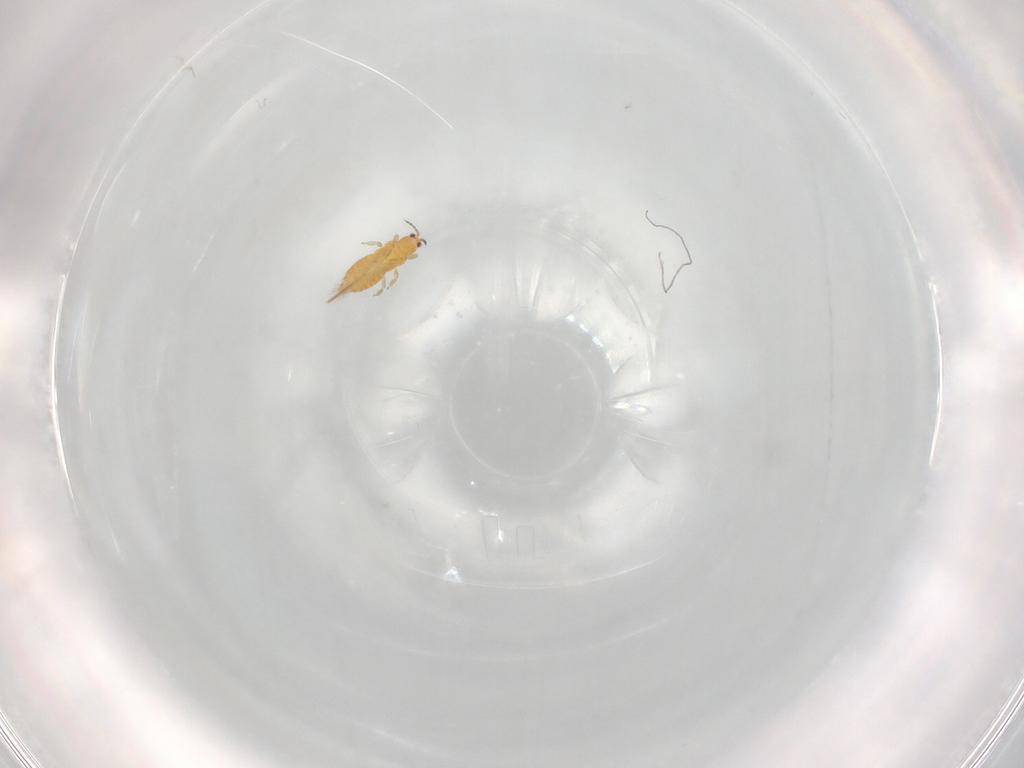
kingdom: Animalia
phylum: Arthropoda
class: Insecta
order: Thysanoptera
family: Thripidae
